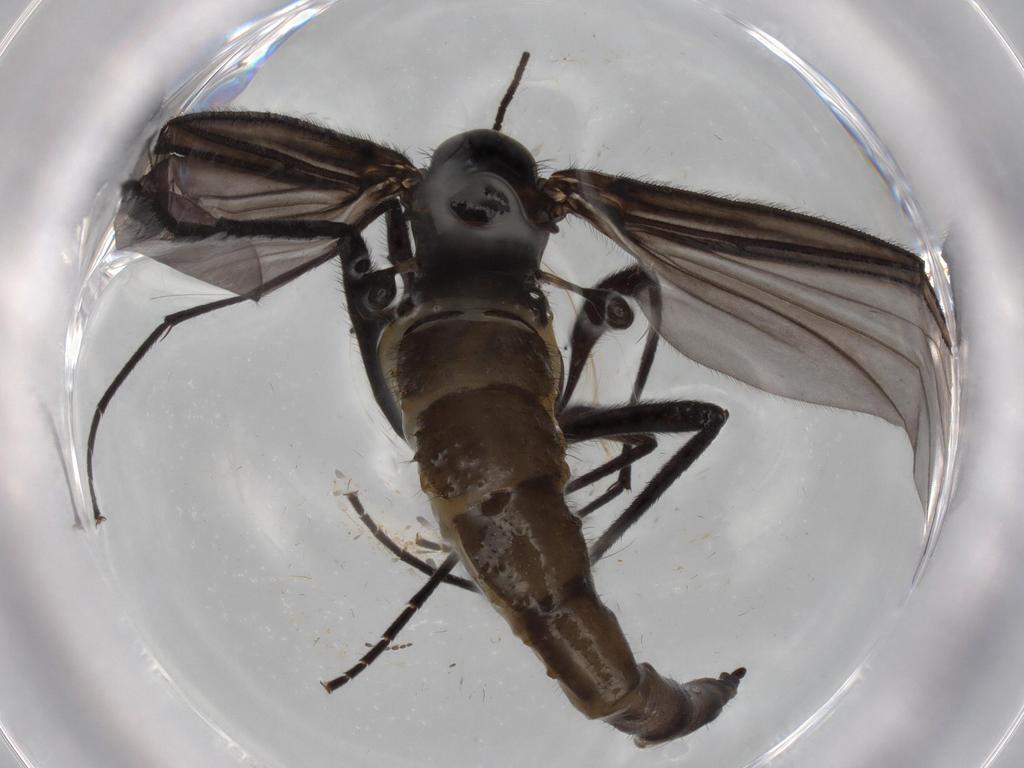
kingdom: Animalia
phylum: Arthropoda
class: Insecta
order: Diptera
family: Sciaridae
